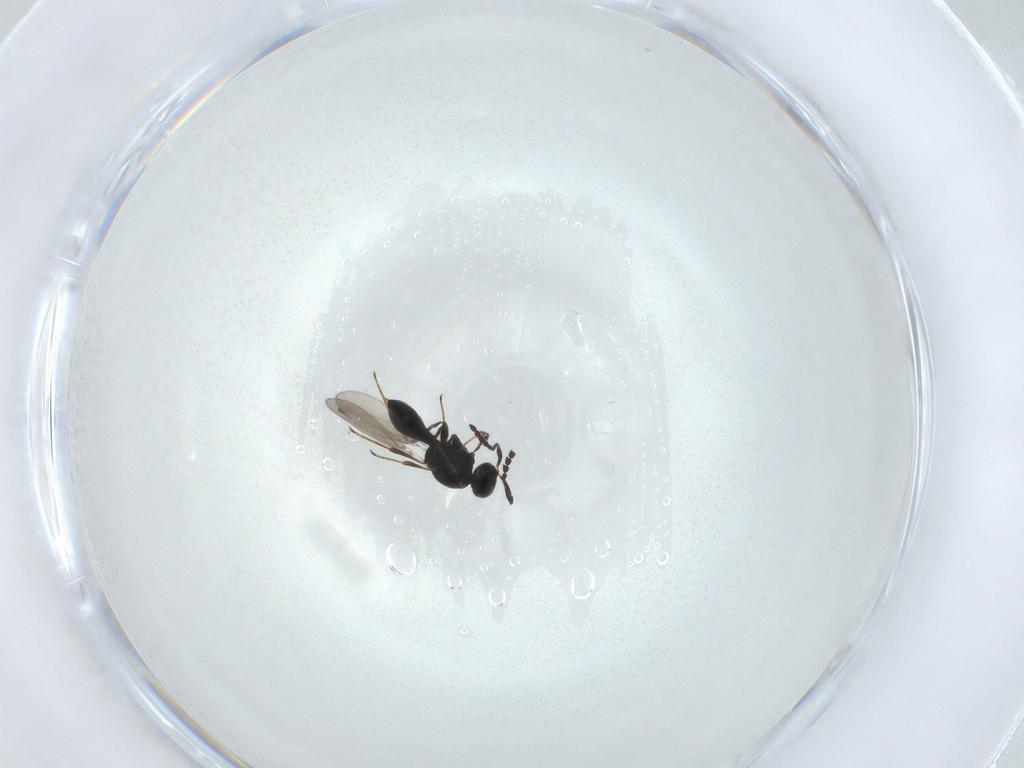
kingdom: Animalia
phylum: Arthropoda
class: Insecta
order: Hymenoptera
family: Platygastridae
